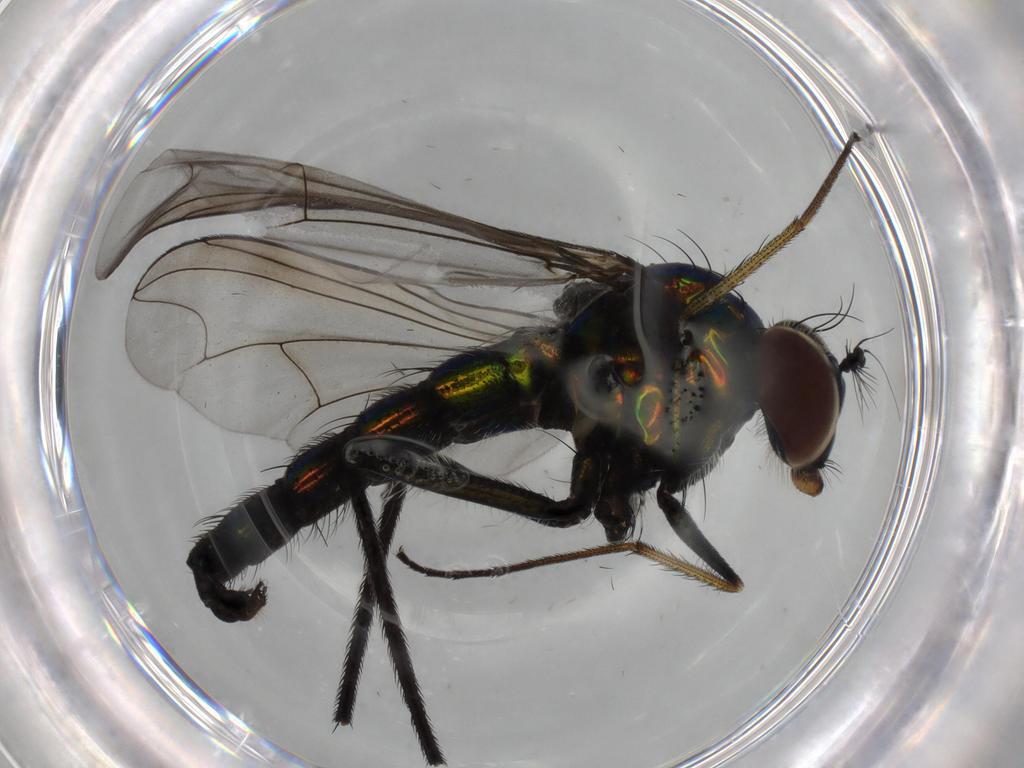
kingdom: Animalia
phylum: Arthropoda
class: Insecta
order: Diptera
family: Dolichopodidae
